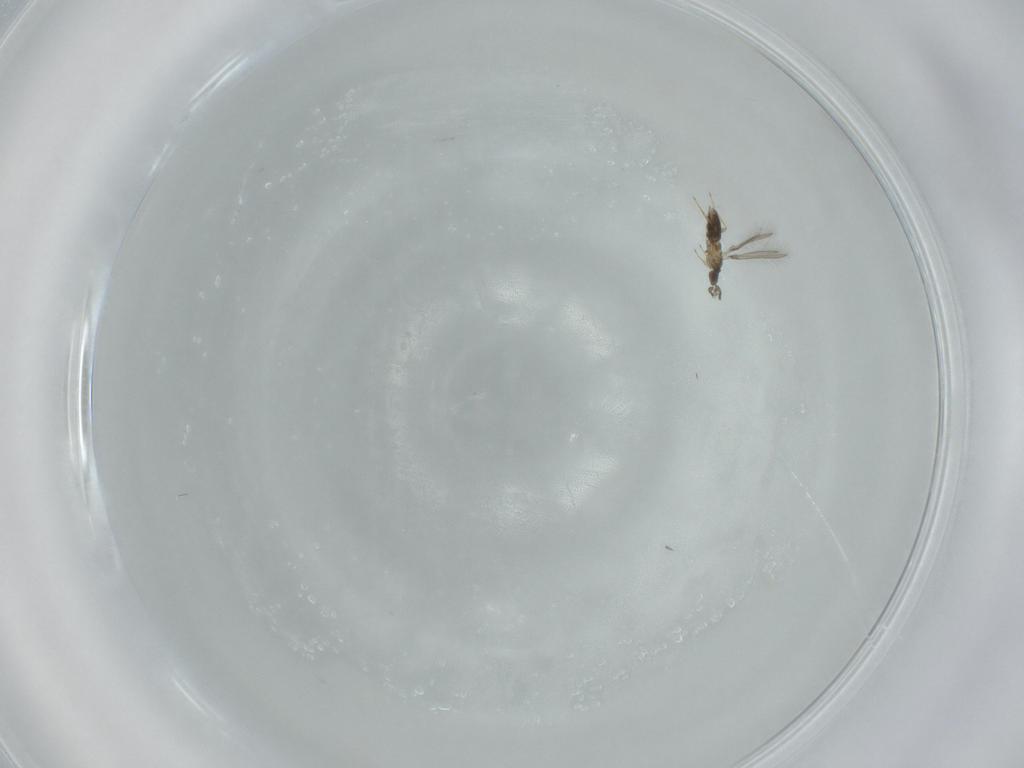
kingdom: Animalia
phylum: Arthropoda
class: Insecta
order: Hymenoptera
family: Mymaridae
